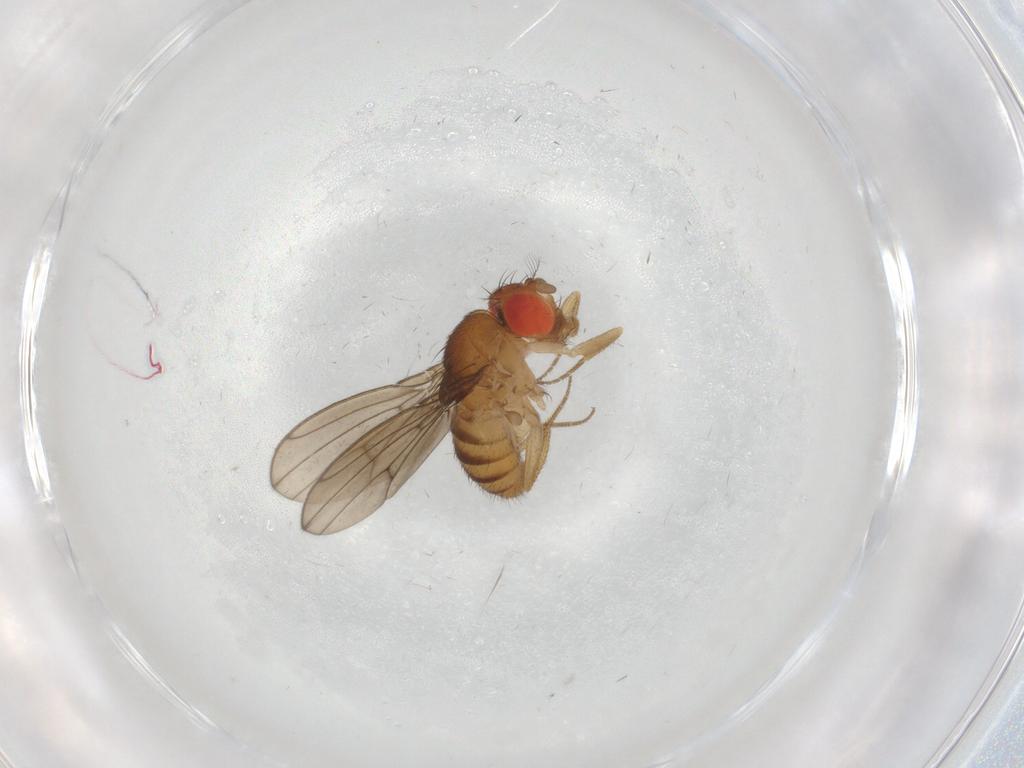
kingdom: Animalia
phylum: Arthropoda
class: Insecta
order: Diptera
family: Drosophilidae
